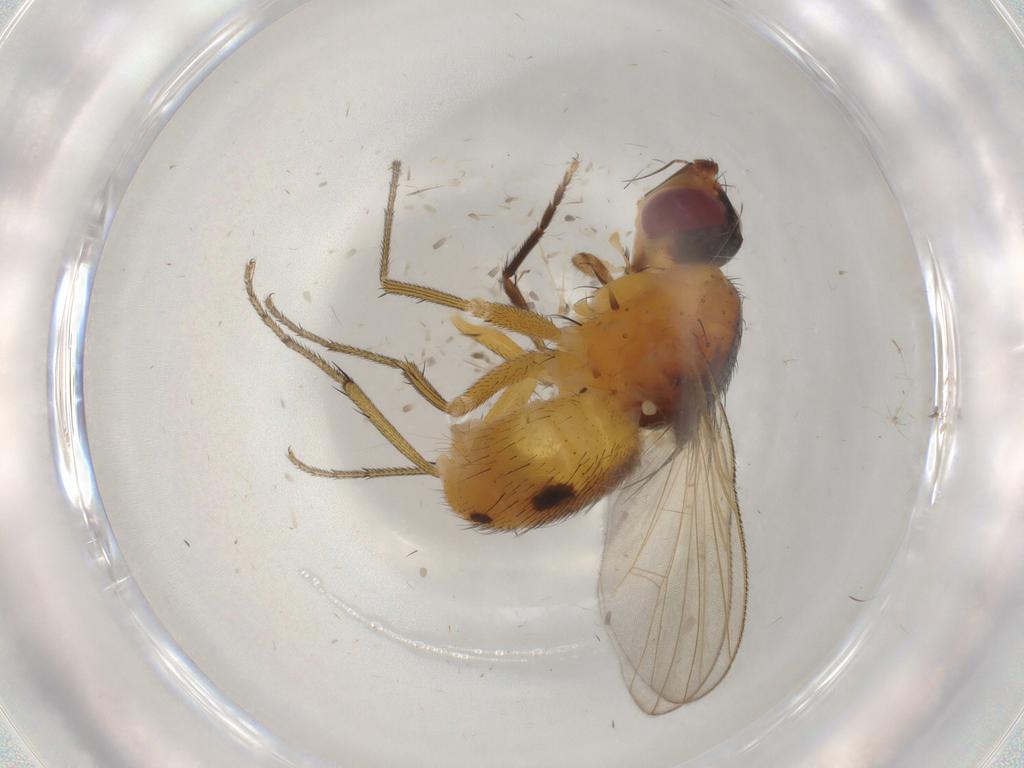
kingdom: Animalia
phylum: Arthropoda
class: Insecta
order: Diptera
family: Muscidae
